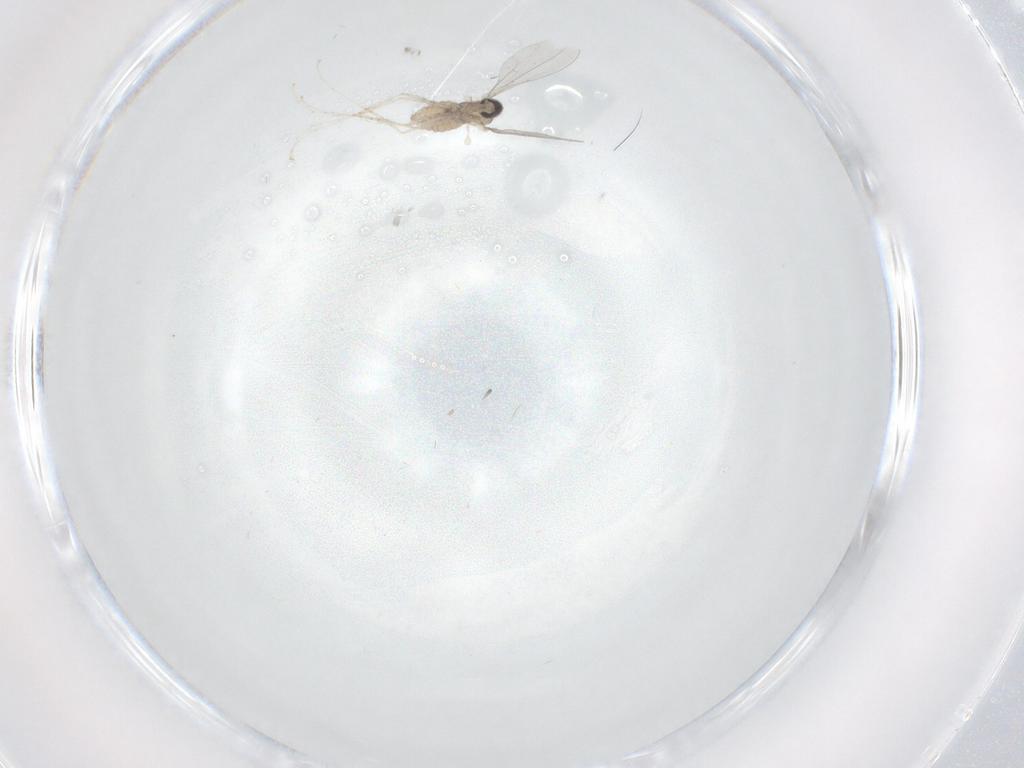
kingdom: Animalia
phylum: Arthropoda
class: Insecta
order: Diptera
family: Cecidomyiidae
